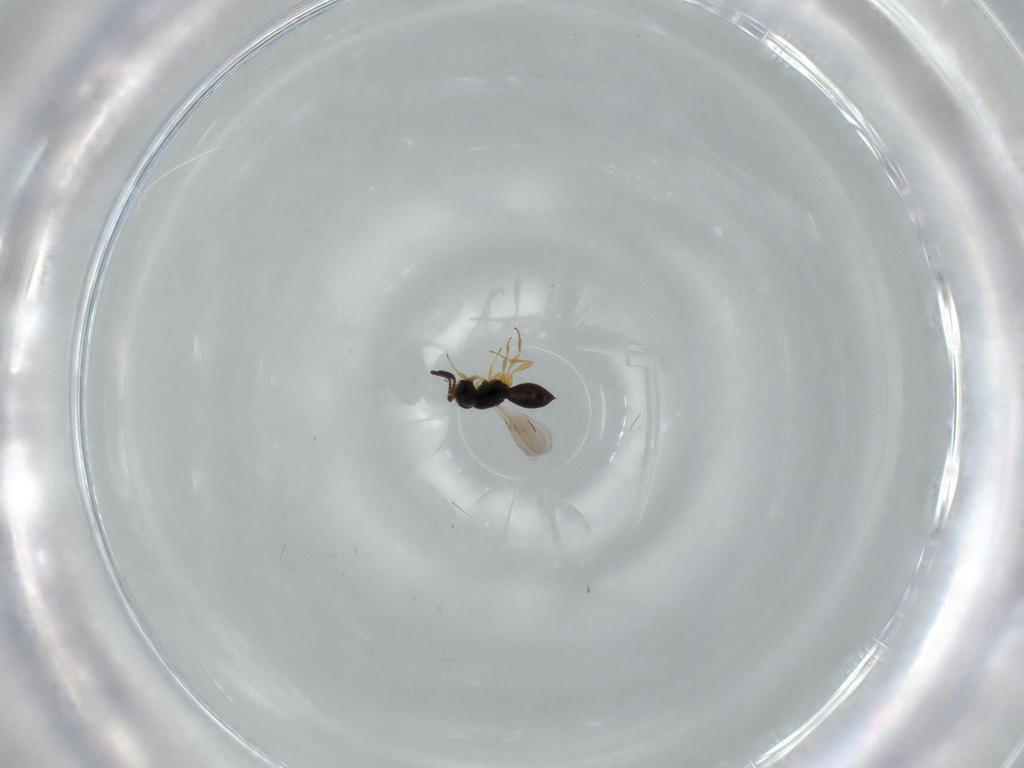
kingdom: Animalia
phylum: Arthropoda
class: Insecta
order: Hymenoptera
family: Scelionidae
